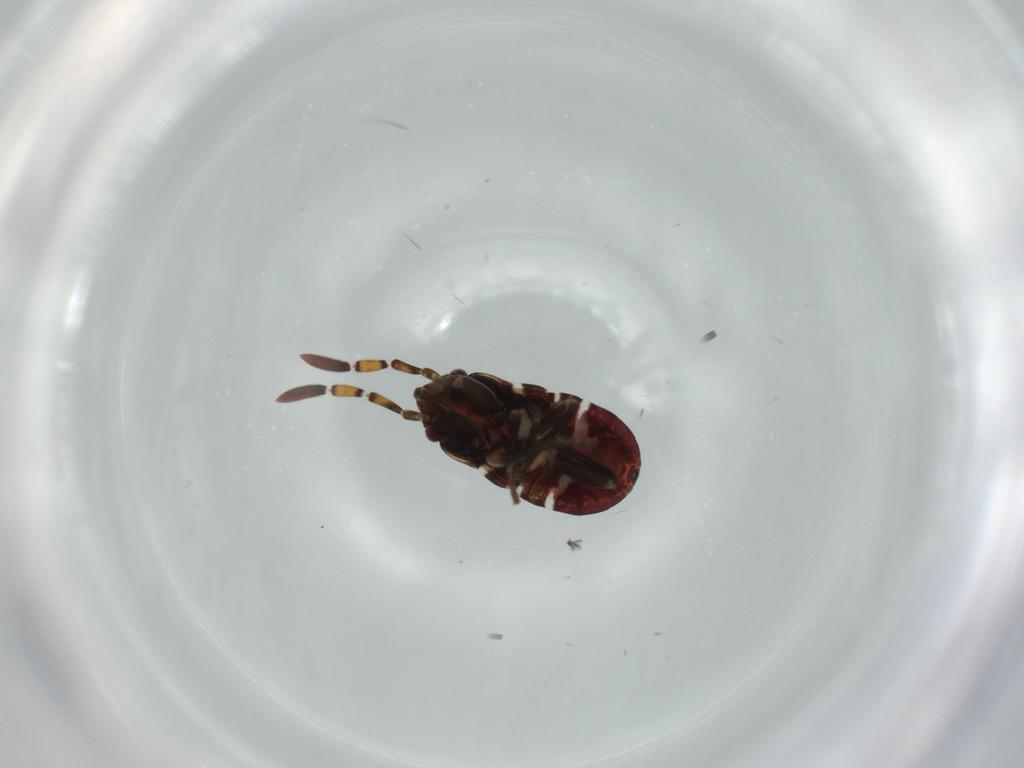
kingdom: Animalia
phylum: Arthropoda
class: Insecta
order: Hemiptera
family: Rhyparochromidae
